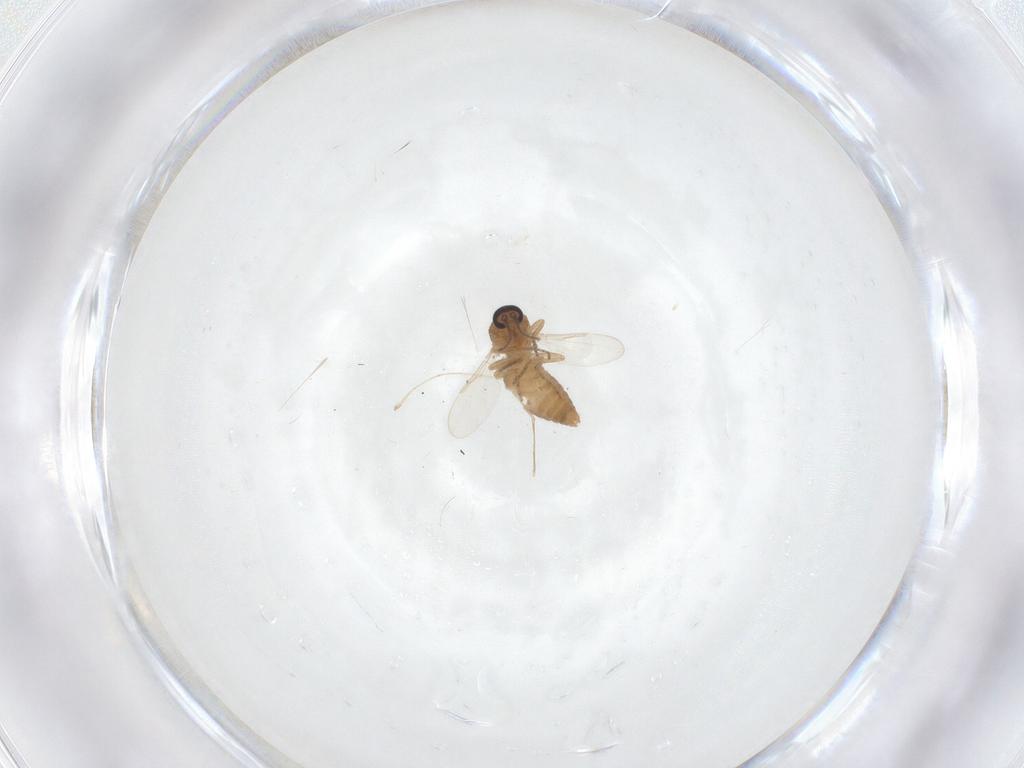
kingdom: Animalia
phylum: Arthropoda
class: Insecta
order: Diptera
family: Ceratopogonidae
